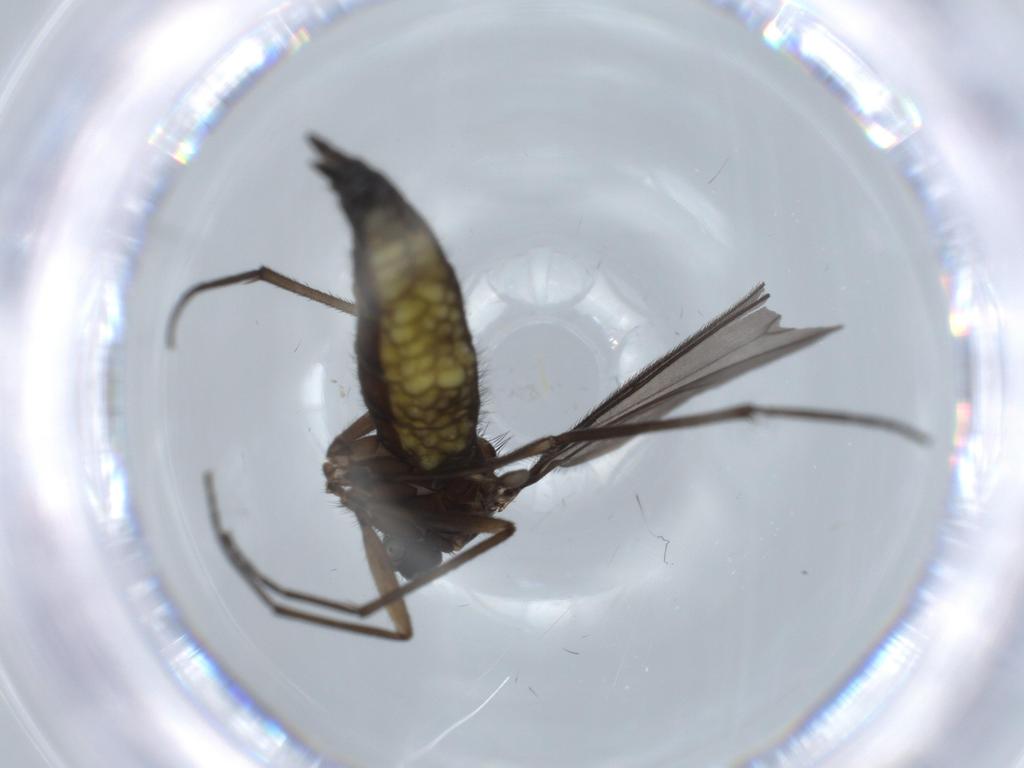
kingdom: Animalia
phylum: Arthropoda
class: Insecta
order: Diptera
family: Sciaridae
